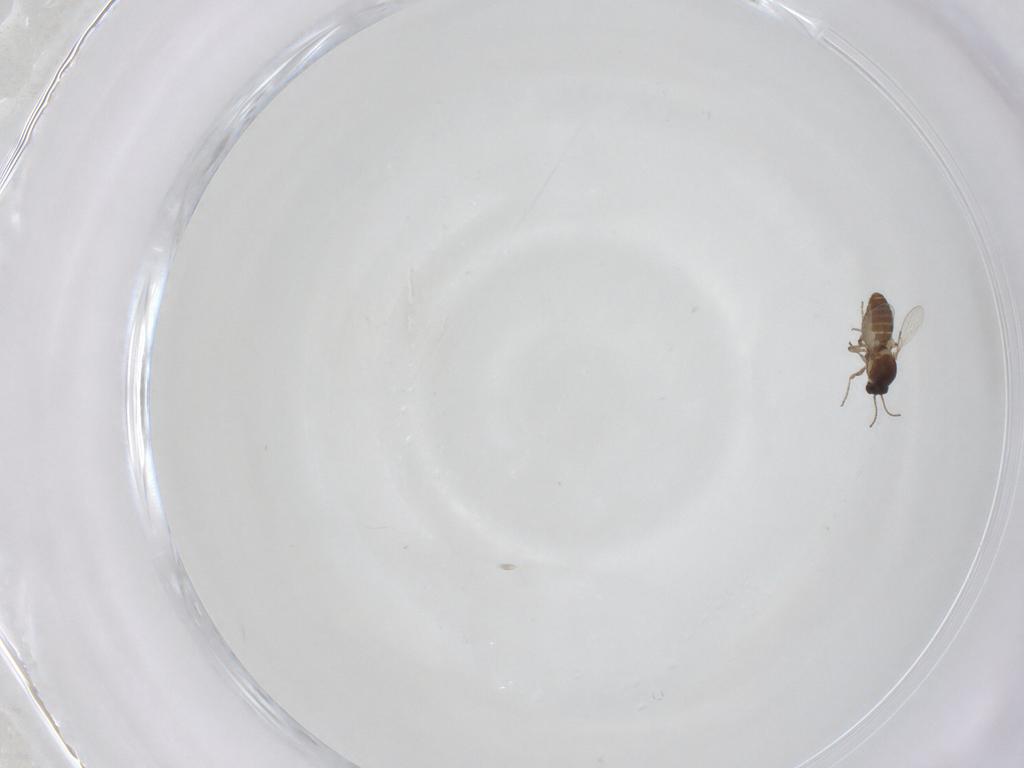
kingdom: Animalia
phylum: Arthropoda
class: Insecta
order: Diptera
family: Ceratopogonidae
